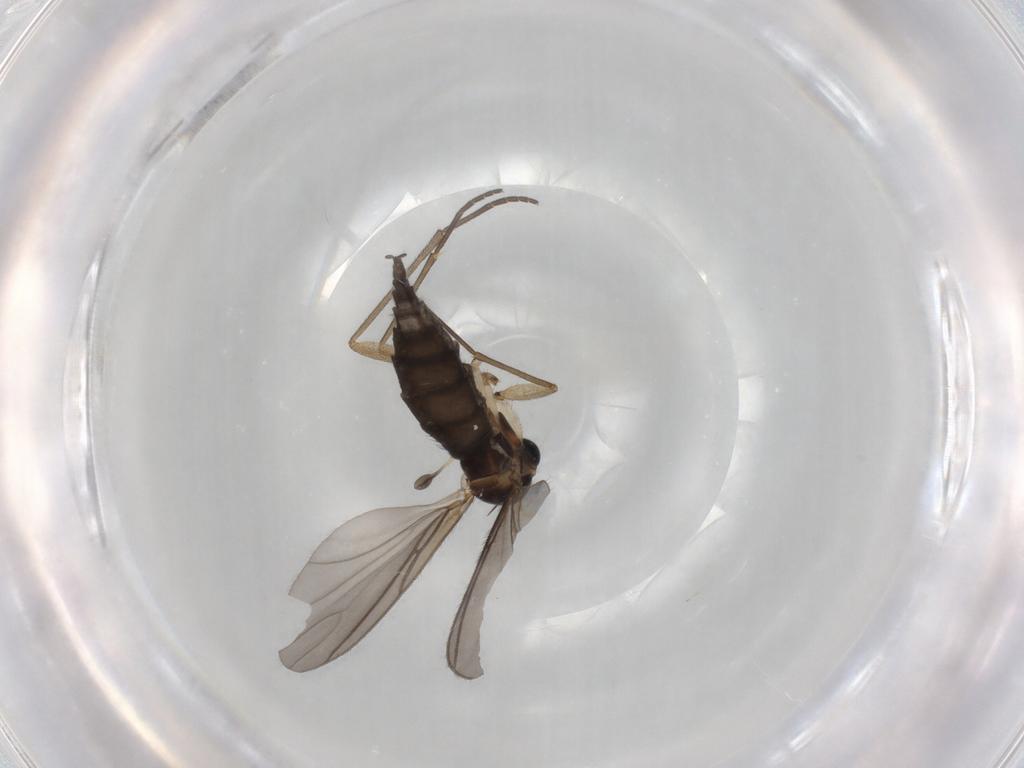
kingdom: Animalia
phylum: Arthropoda
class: Insecta
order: Diptera
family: Sciaridae
